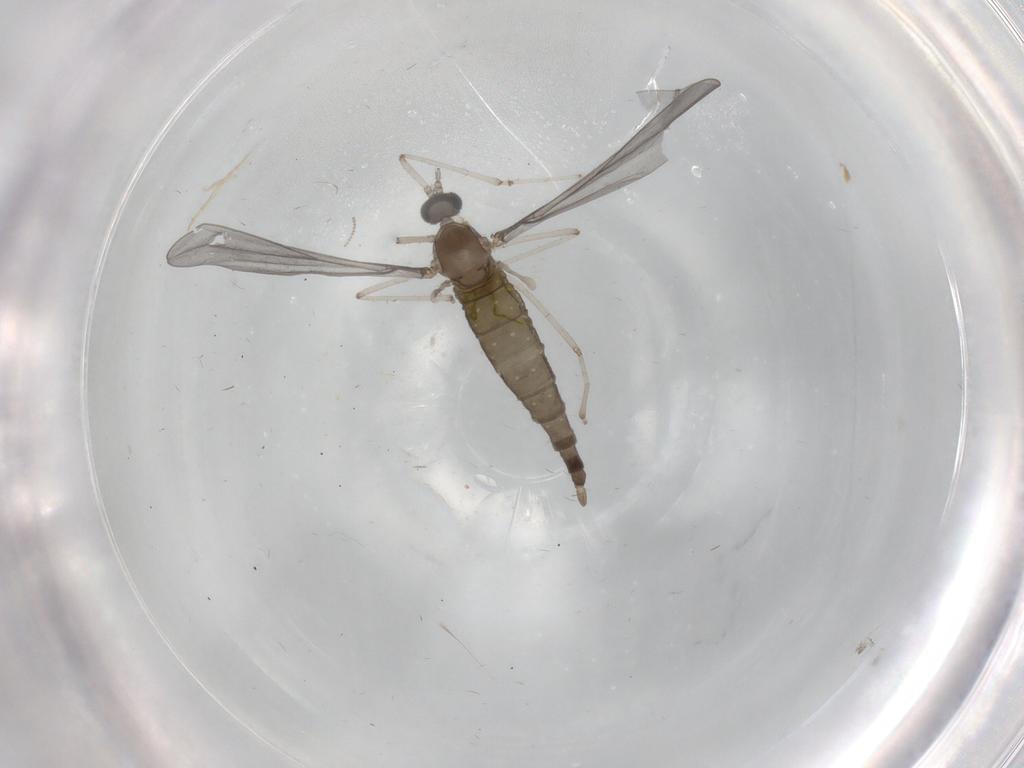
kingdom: Animalia
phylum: Arthropoda
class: Insecta
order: Diptera
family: Cecidomyiidae
